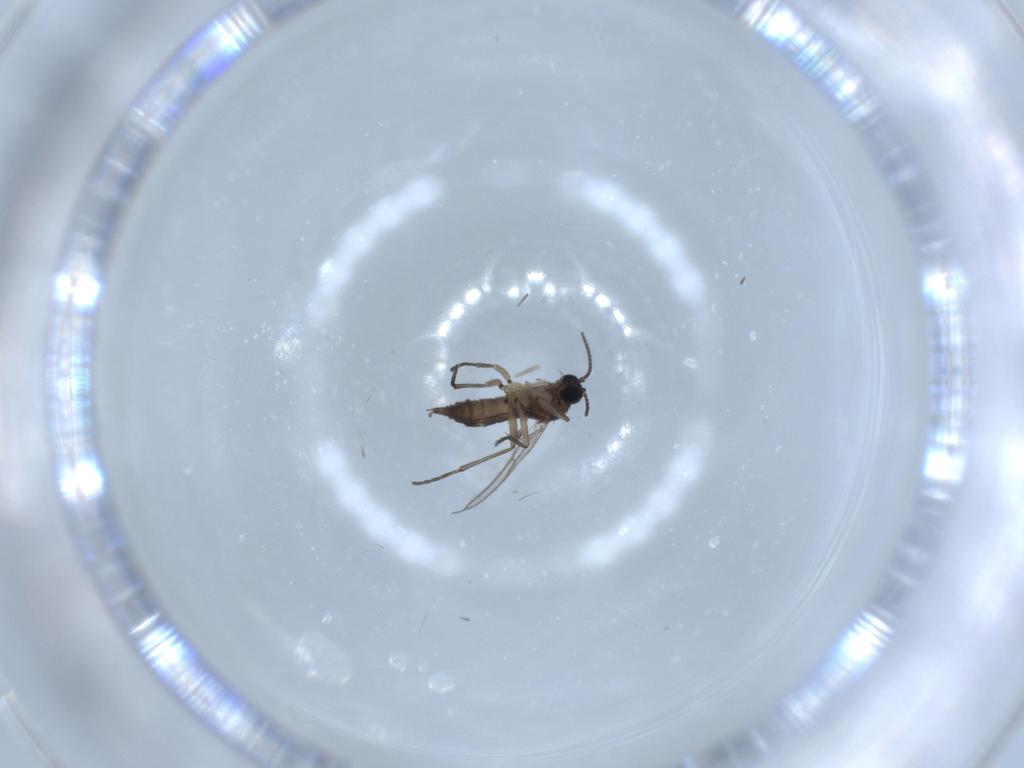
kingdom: Animalia
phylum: Arthropoda
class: Insecta
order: Diptera
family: Sciaridae
